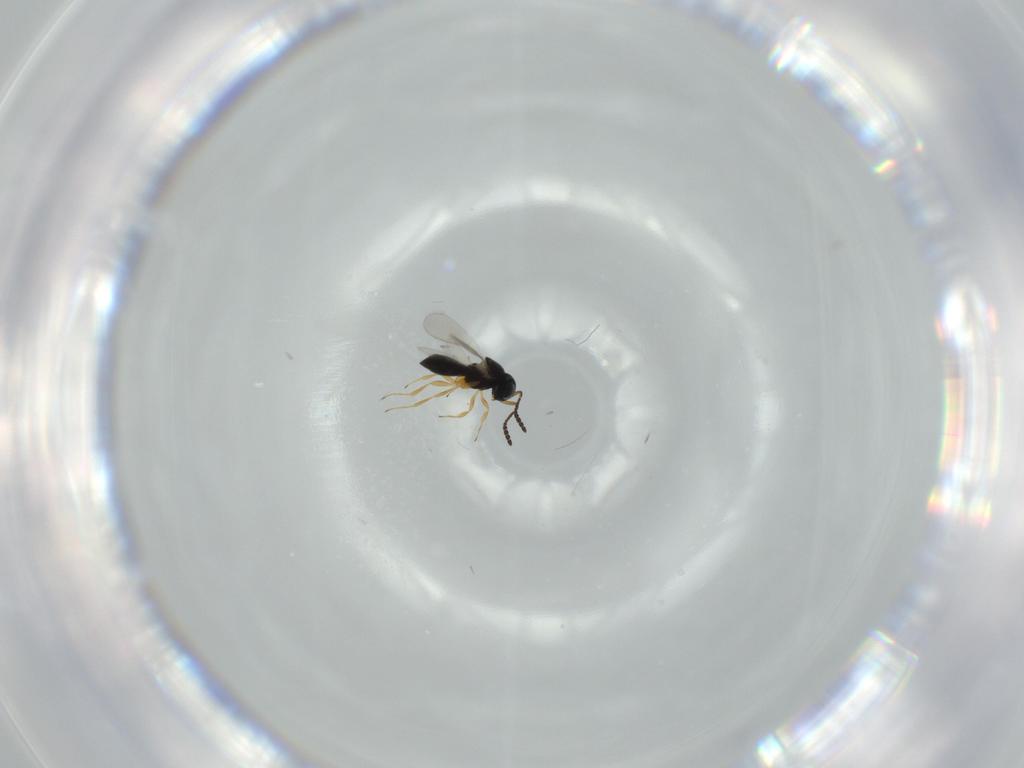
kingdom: Animalia
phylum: Arthropoda
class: Insecta
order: Hymenoptera
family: Scelionidae
